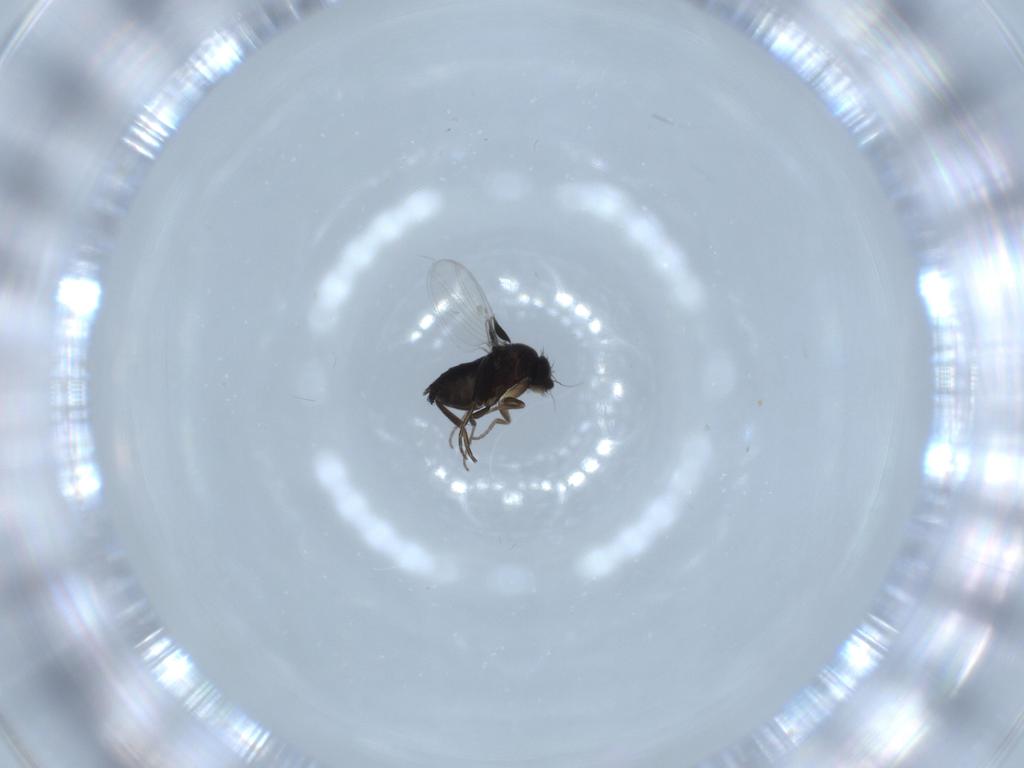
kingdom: Animalia
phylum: Arthropoda
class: Insecta
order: Diptera
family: Phoridae
